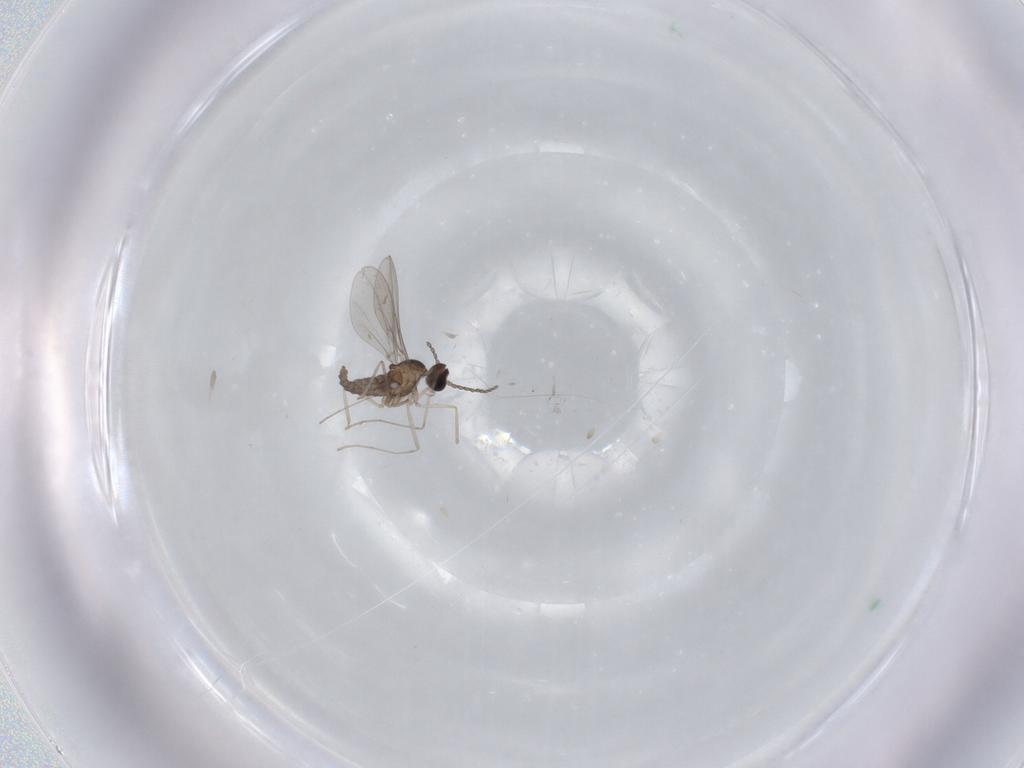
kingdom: Animalia
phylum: Arthropoda
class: Insecta
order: Diptera
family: Cecidomyiidae
